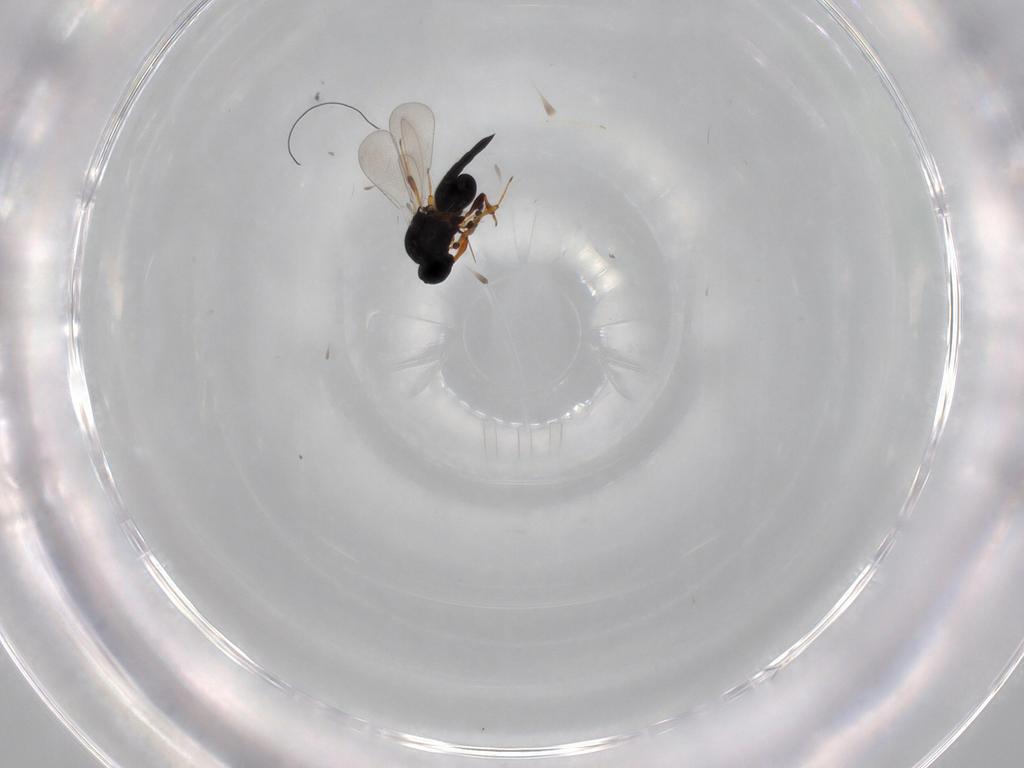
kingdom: Animalia
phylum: Arthropoda
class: Insecta
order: Hymenoptera
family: Platygastridae
